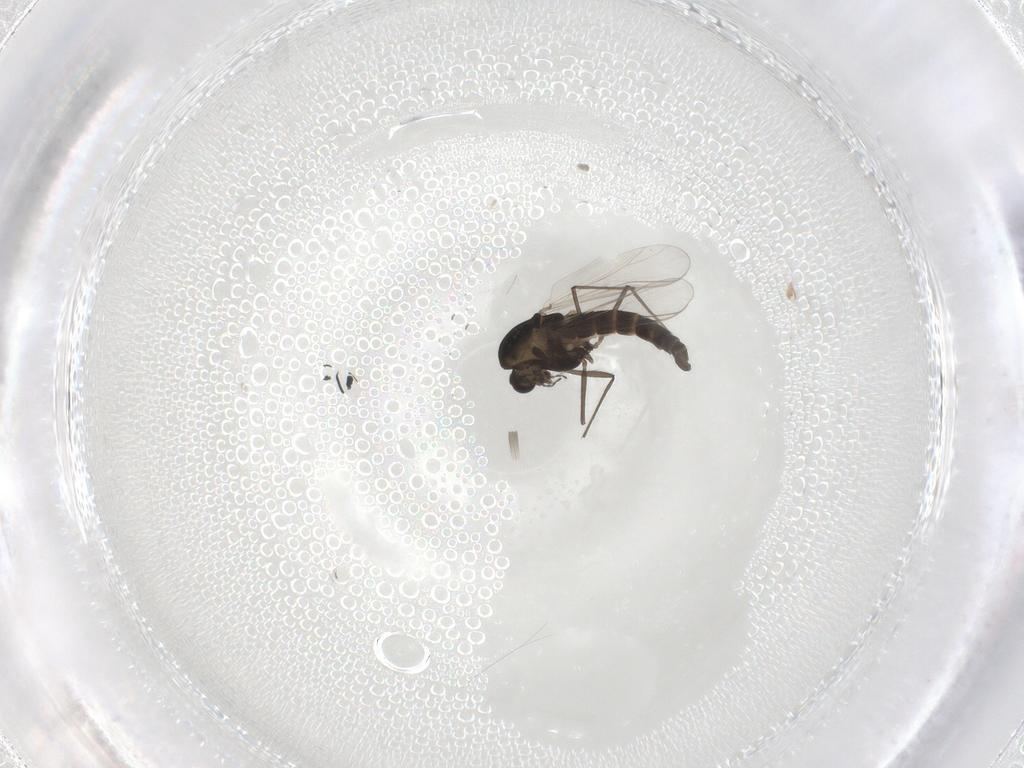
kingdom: Animalia
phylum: Arthropoda
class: Insecta
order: Diptera
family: Chironomidae
